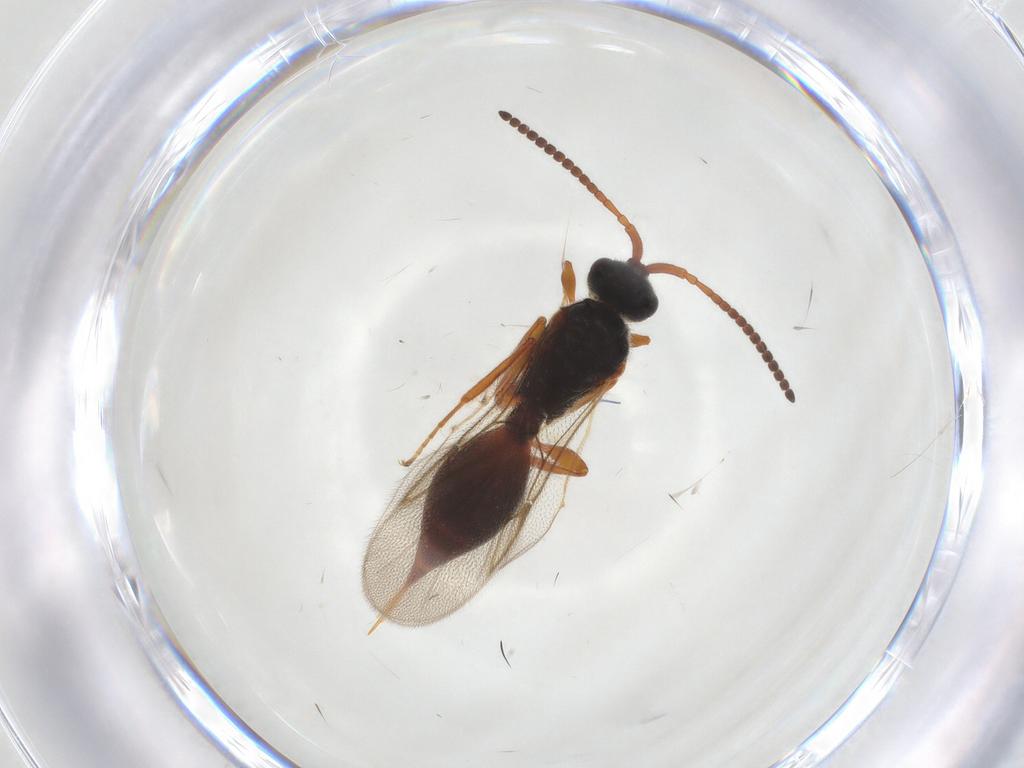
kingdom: Animalia
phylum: Arthropoda
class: Insecta
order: Hymenoptera
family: Diapriidae
